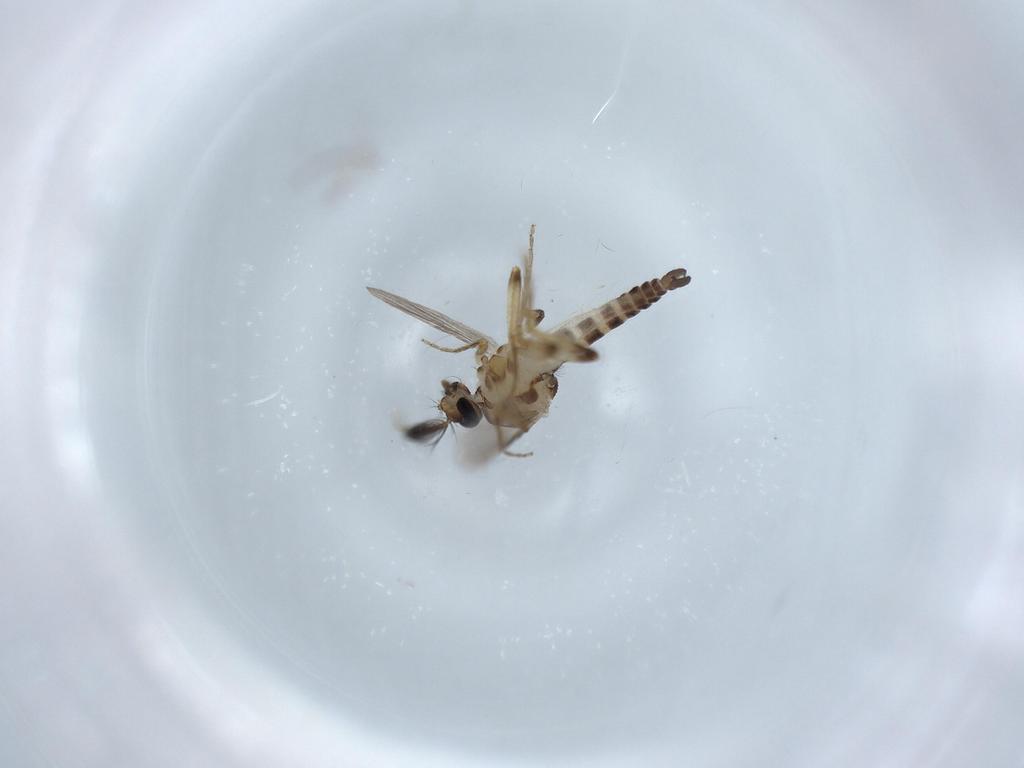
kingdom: Animalia
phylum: Arthropoda
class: Insecta
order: Diptera
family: Ceratopogonidae
